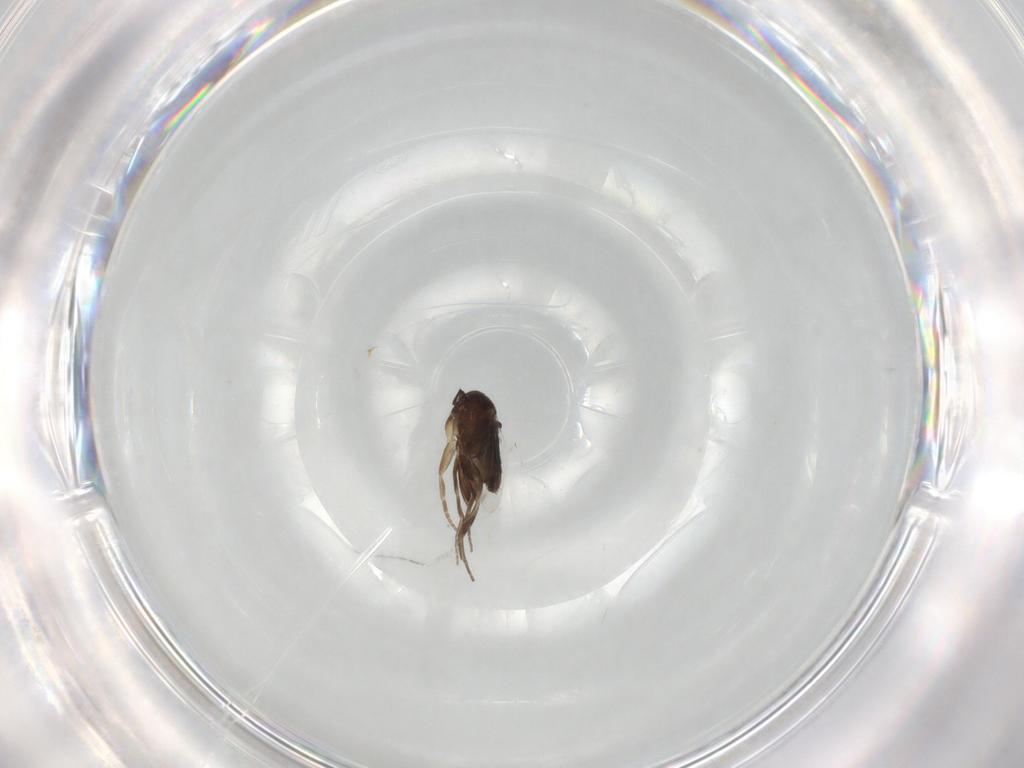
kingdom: Animalia
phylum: Arthropoda
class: Insecta
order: Diptera
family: Phoridae
